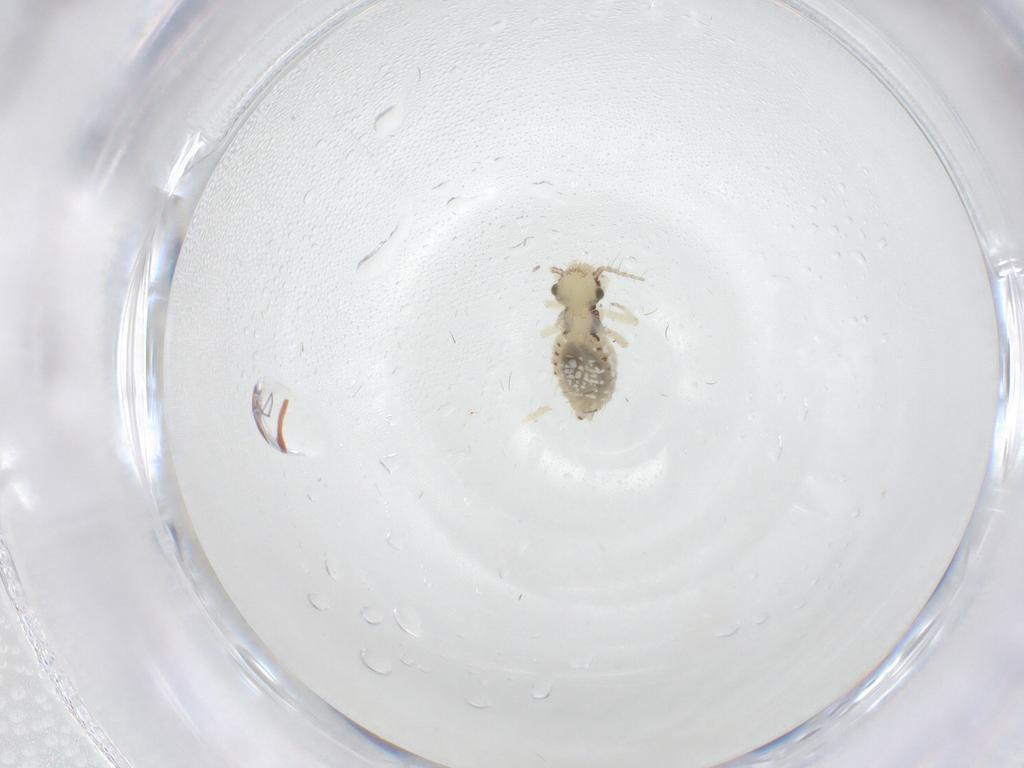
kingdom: Animalia
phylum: Arthropoda
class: Insecta
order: Psocodea
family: Pseudocaeciliidae
